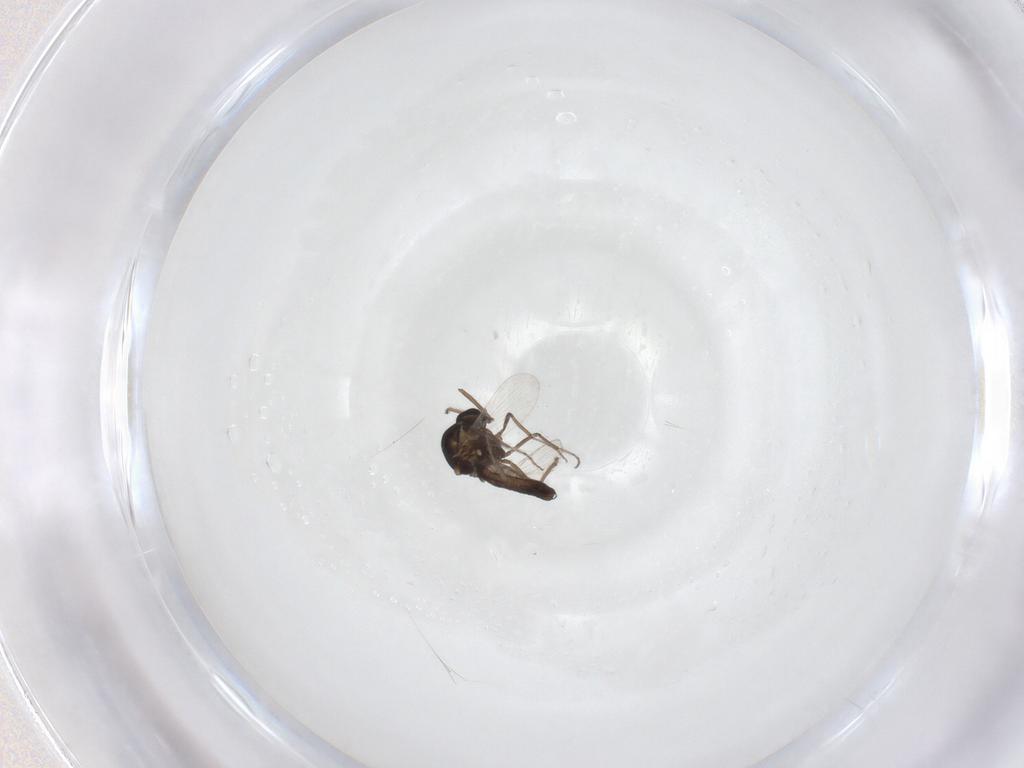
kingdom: Animalia
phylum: Arthropoda
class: Insecta
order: Diptera
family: Ceratopogonidae
